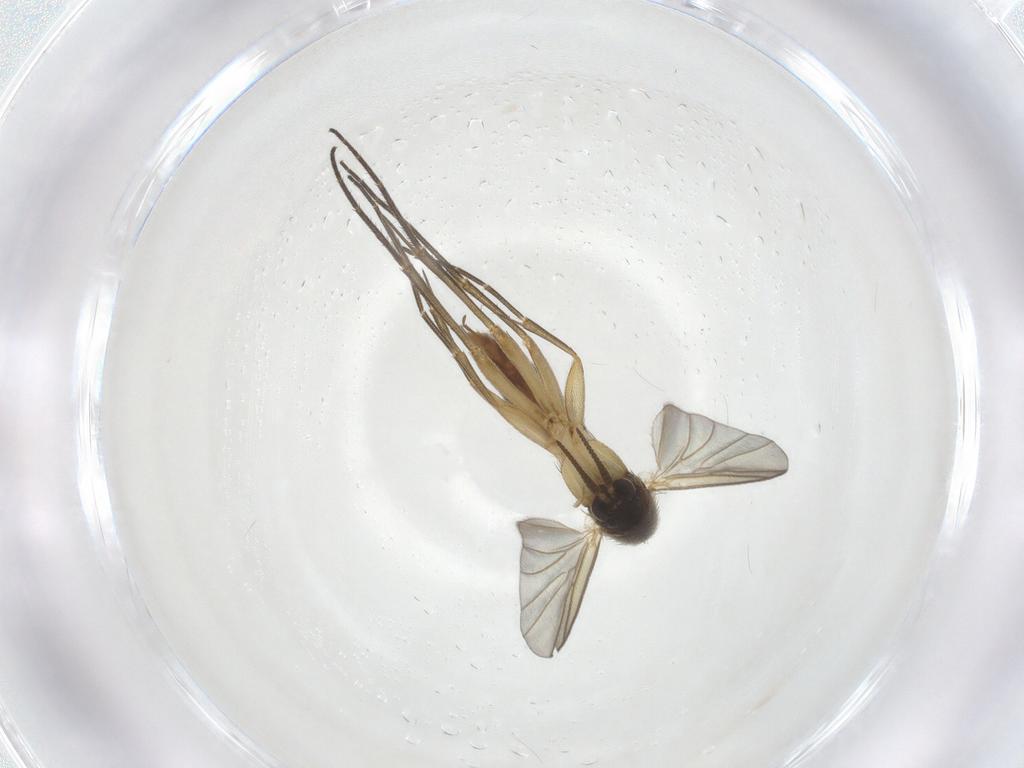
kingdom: Animalia
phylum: Arthropoda
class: Insecta
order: Diptera
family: Mycetophilidae
